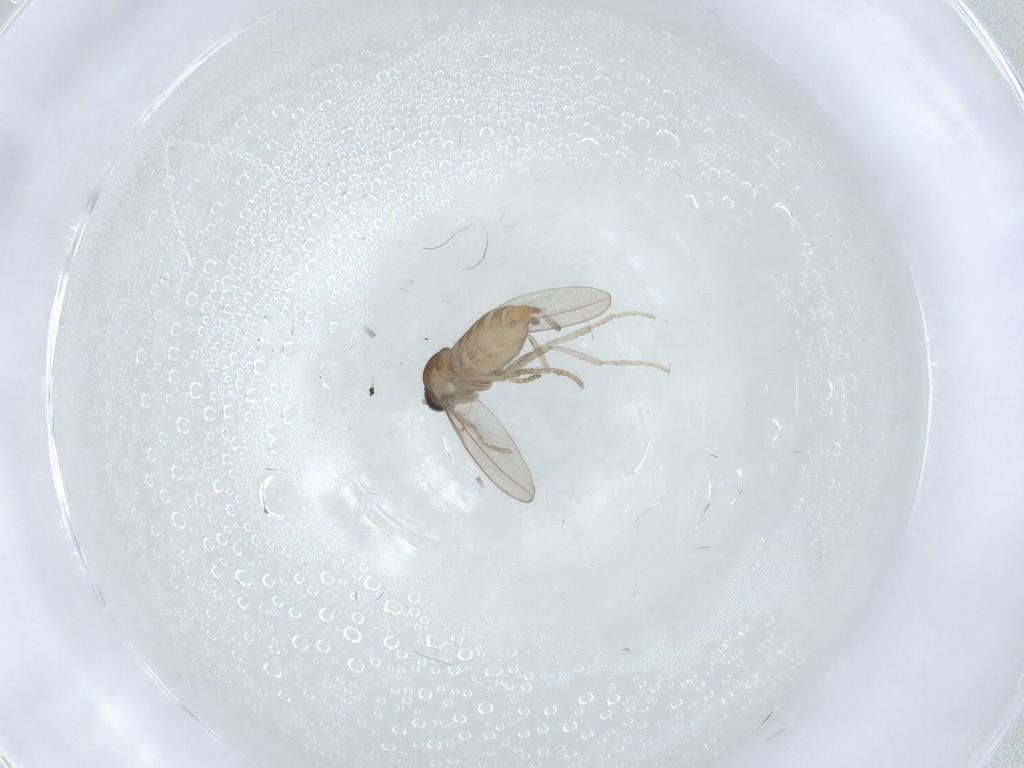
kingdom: Animalia
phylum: Arthropoda
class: Insecta
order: Diptera
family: Cecidomyiidae
